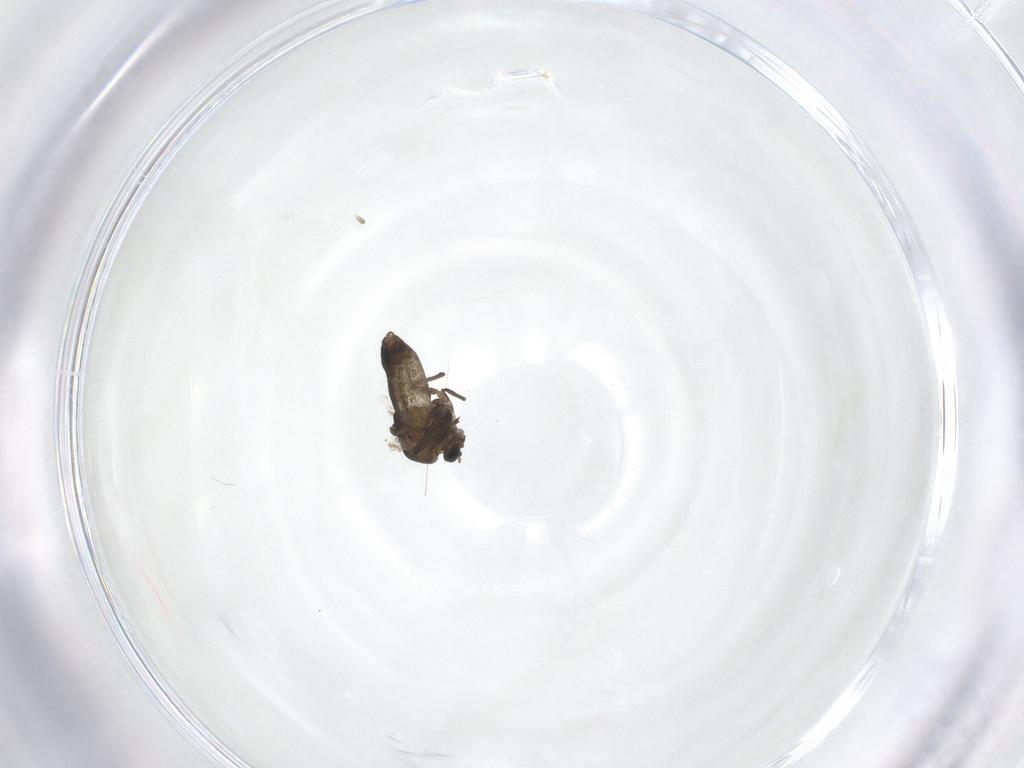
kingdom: Animalia
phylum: Arthropoda
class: Insecta
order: Diptera
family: Chironomidae
